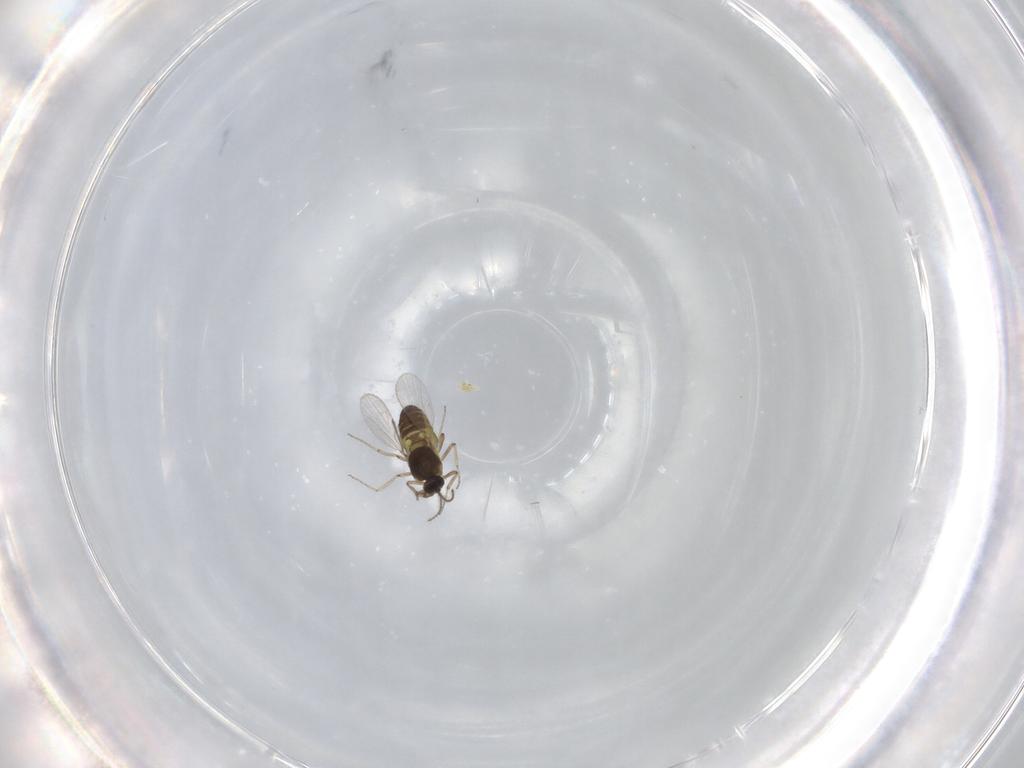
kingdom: Animalia
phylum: Arthropoda
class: Insecta
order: Diptera
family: Ceratopogonidae
